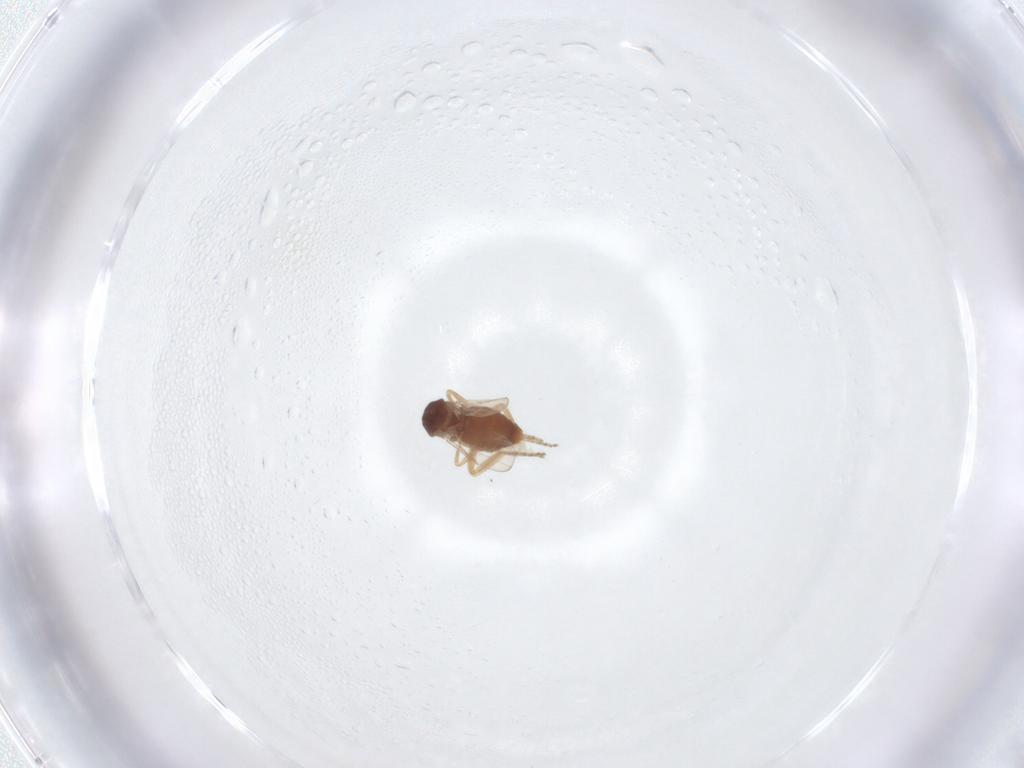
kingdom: Animalia
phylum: Arthropoda
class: Insecta
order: Diptera
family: Ceratopogonidae
